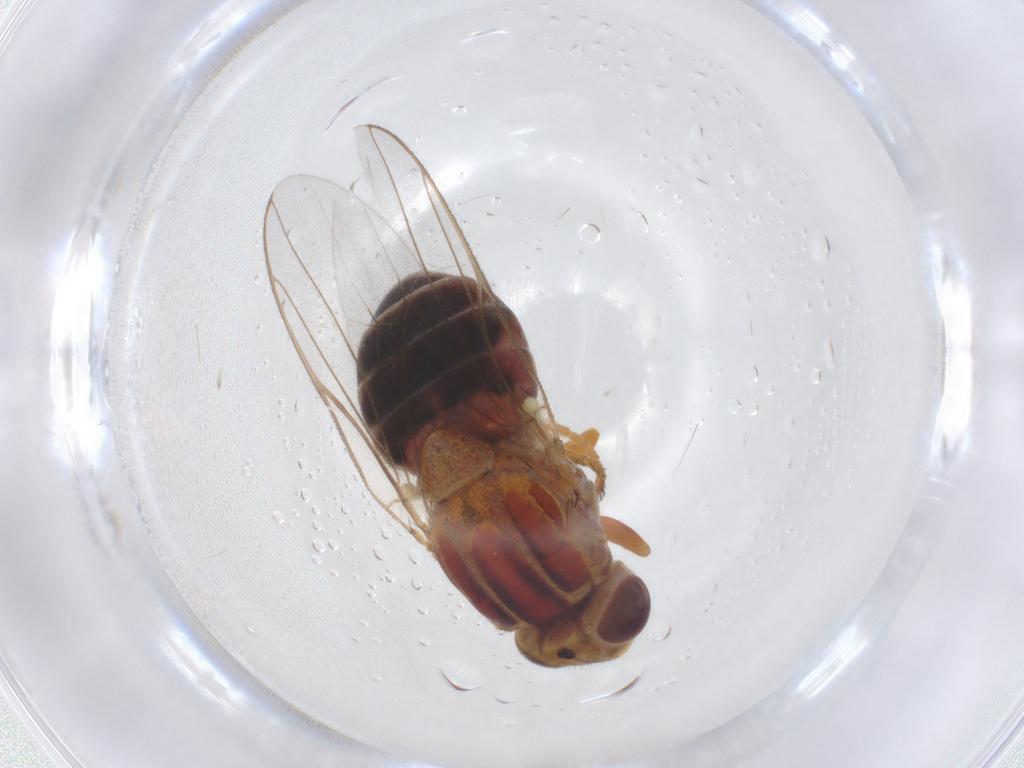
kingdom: Animalia
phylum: Arthropoda
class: Insecta
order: Diptera
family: Chloropidae
